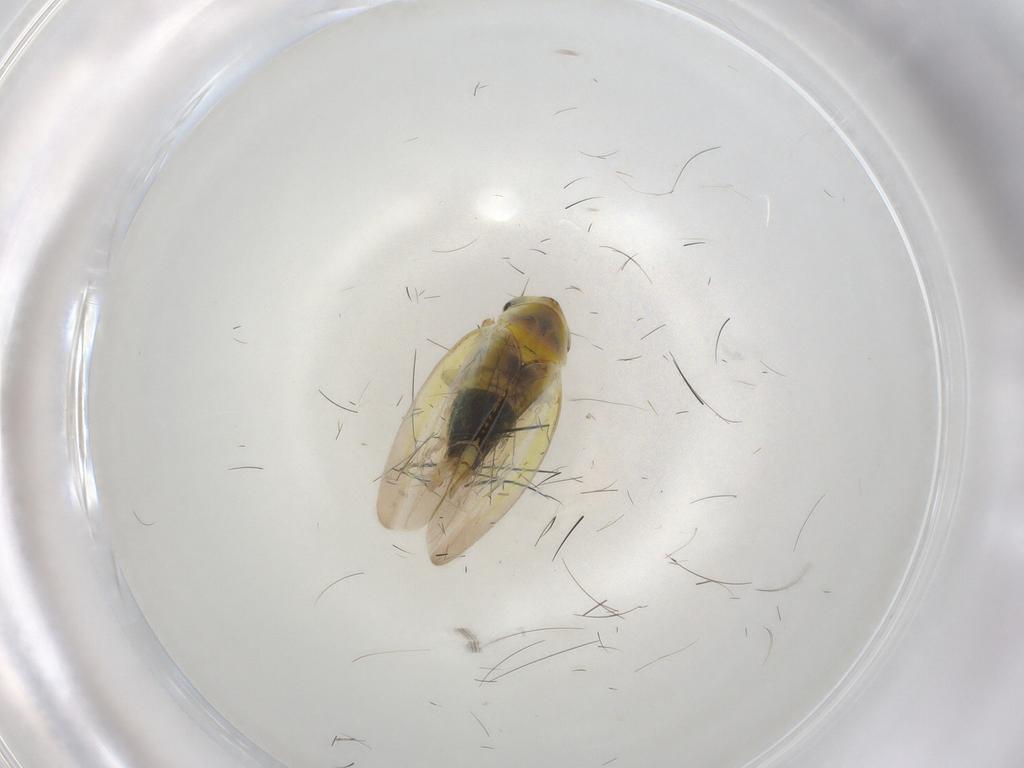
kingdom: Animalia
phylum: Arthropoda
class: Insecta
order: Hemiptera
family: Cicadellidae
